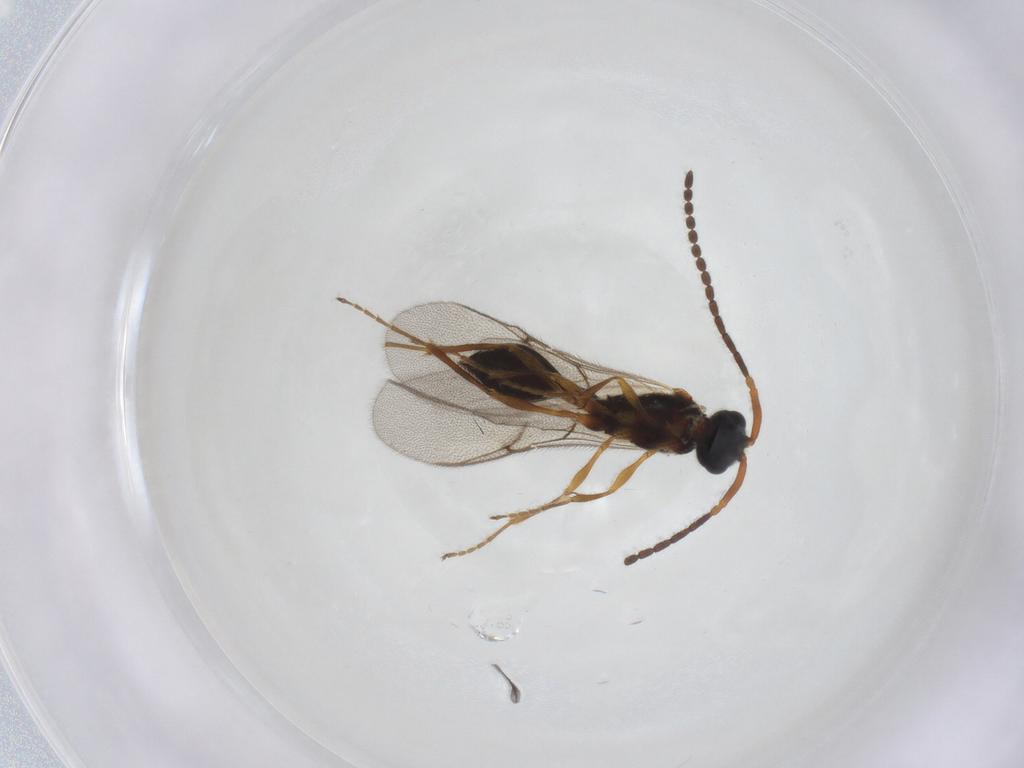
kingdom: Animalia
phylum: Arthropoda
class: Insecta
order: Hymenoptera
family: Diapriidae
